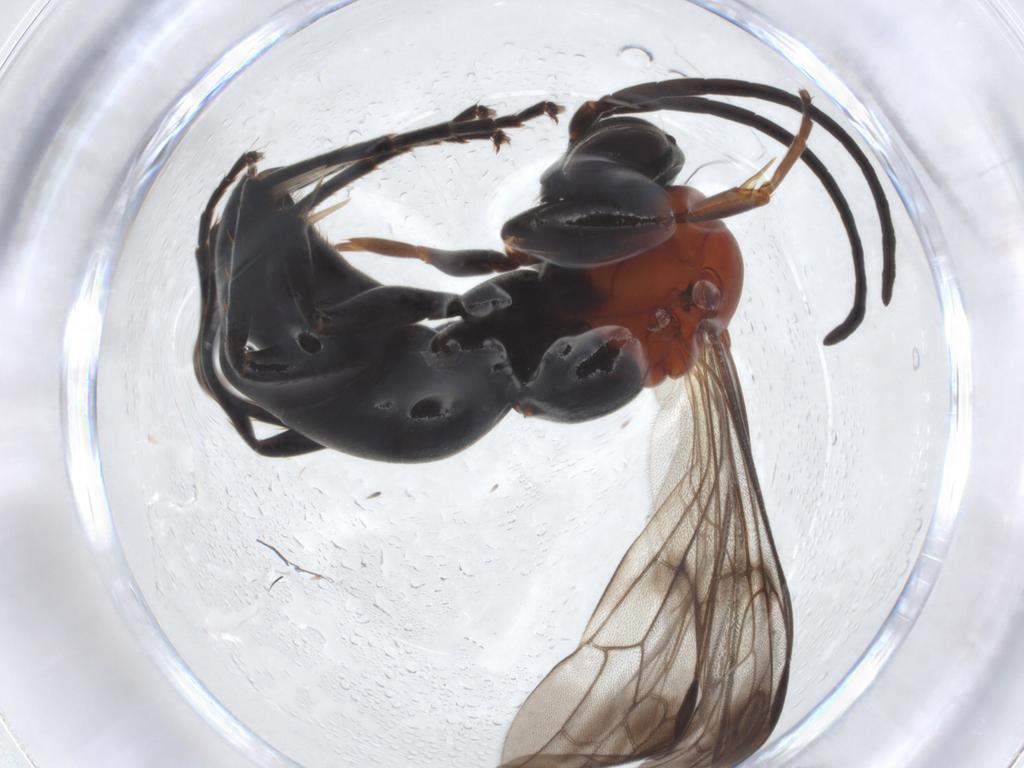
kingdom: Animalia
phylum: Arthropoda
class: Insecta
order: Hymenoptera
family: Pompilidae
